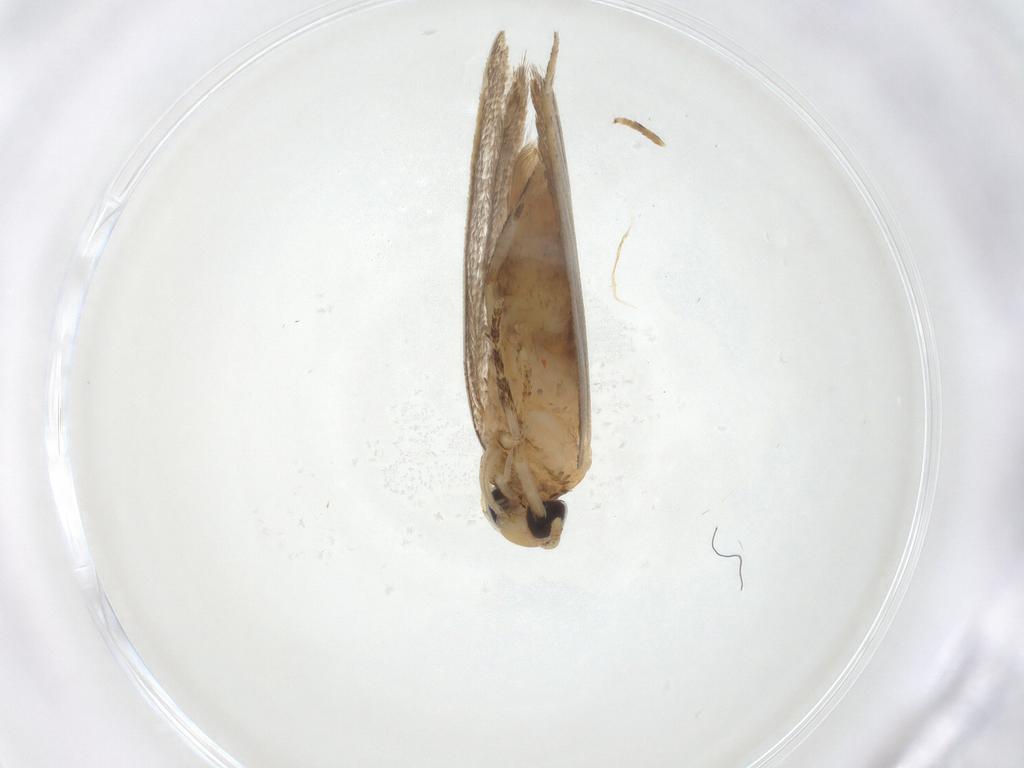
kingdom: Animalia
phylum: Arthropoda
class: Insecta
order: Lepidoptera
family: Oecophoridae
